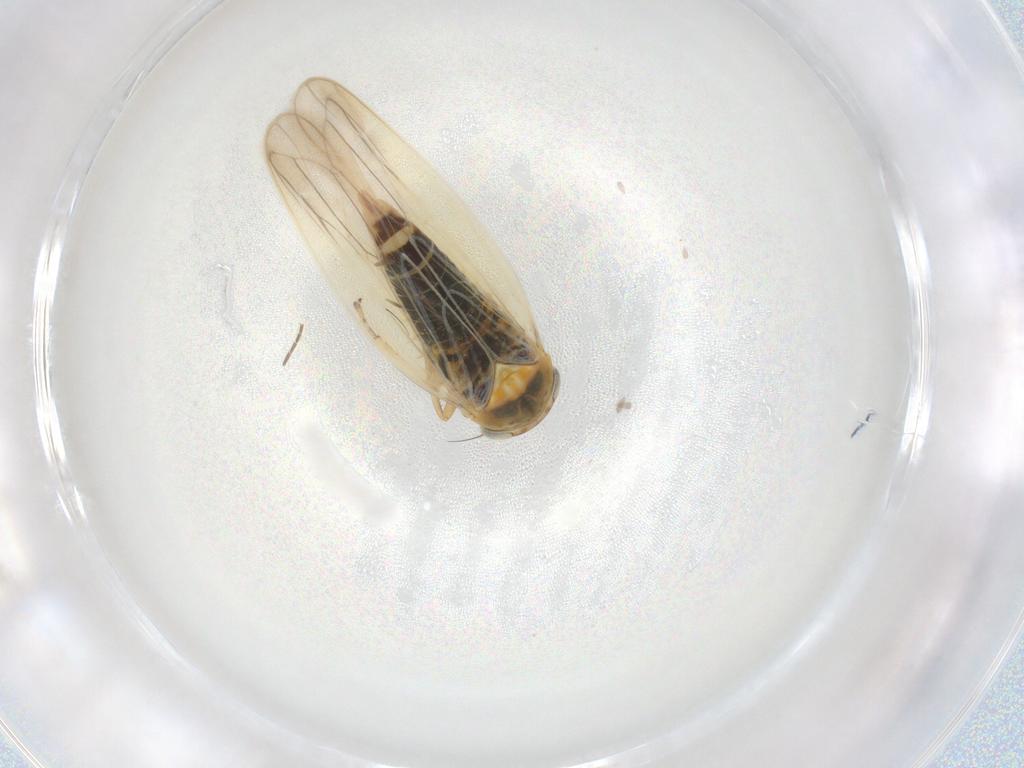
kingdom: Animalia
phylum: Arthropoda
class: Insecta
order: Hemiptera
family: Cicadellidae
